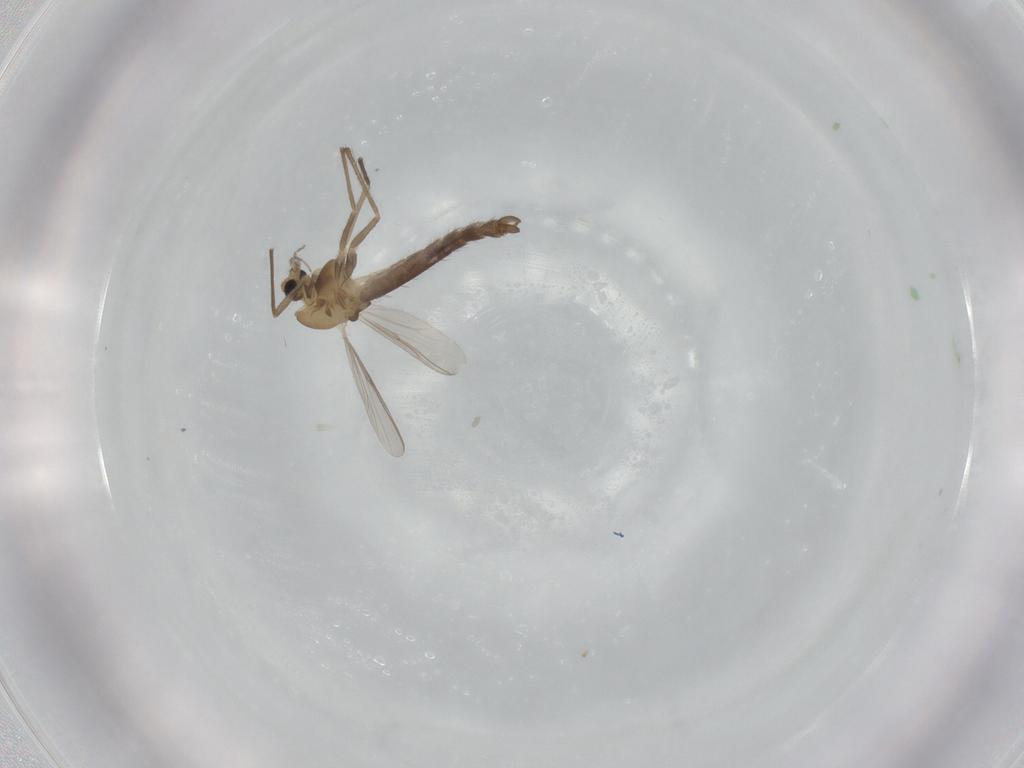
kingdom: Animalia
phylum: Arthropoda
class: Insecta
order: Diptera
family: Chironomidae
